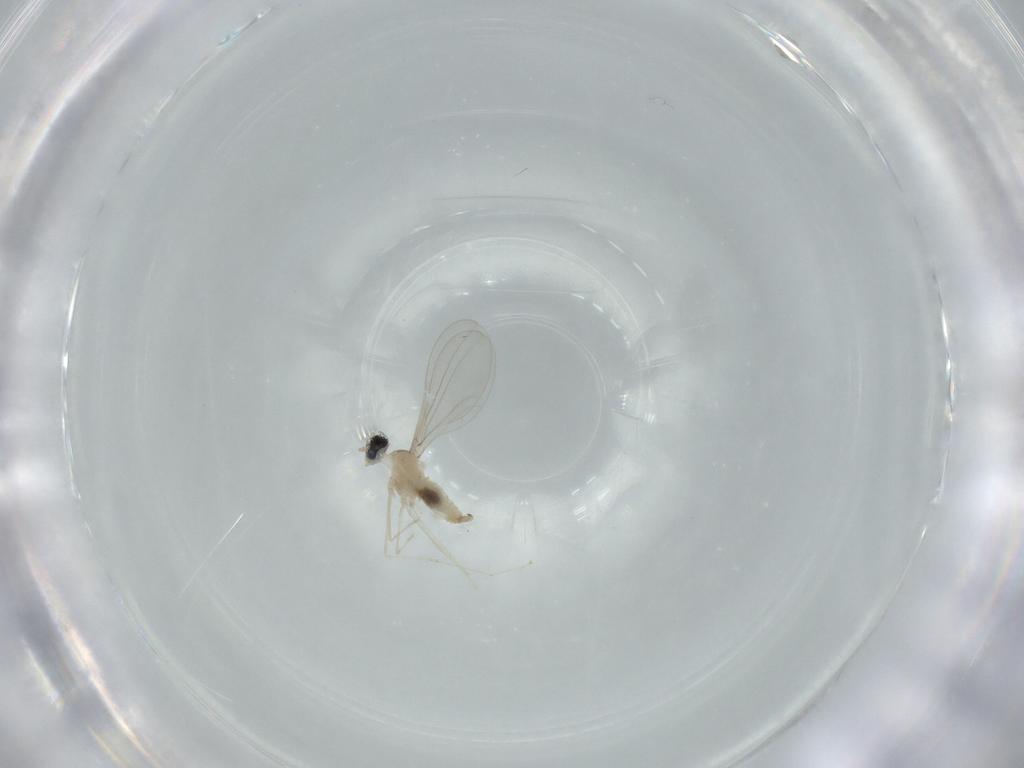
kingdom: Animalia
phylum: Arthropoda
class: Insecta
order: Diptera
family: Cecidomyiidae
